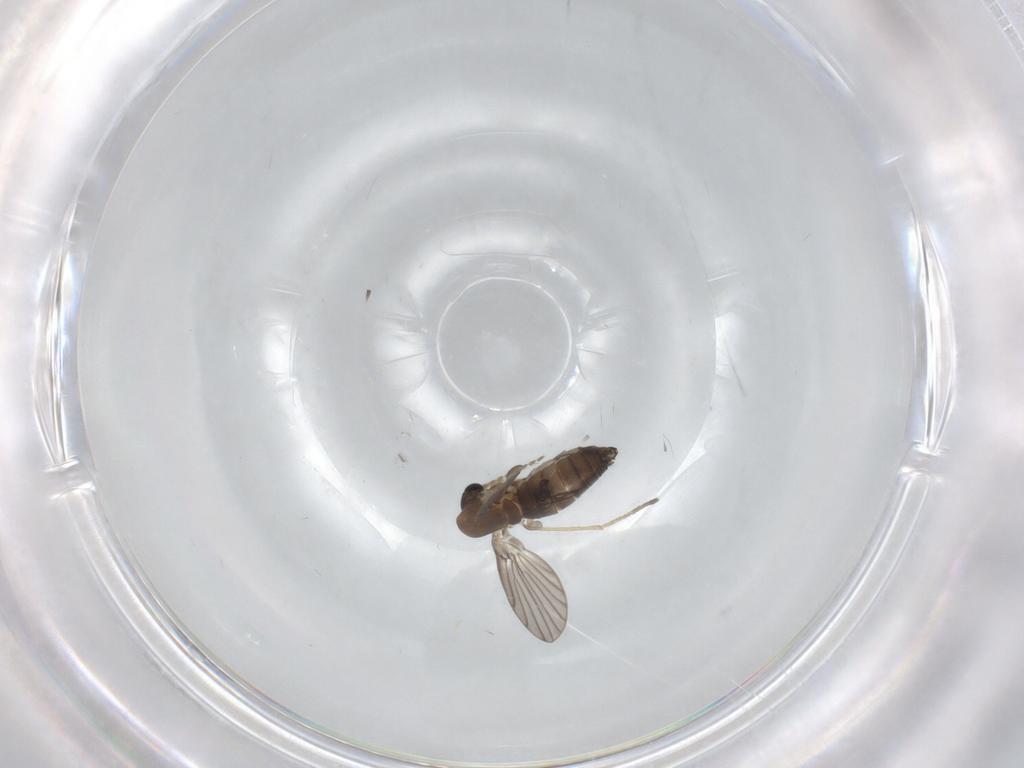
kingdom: Animalia
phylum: Arthropoda
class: Insecta
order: Diptera
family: Psychodidae
